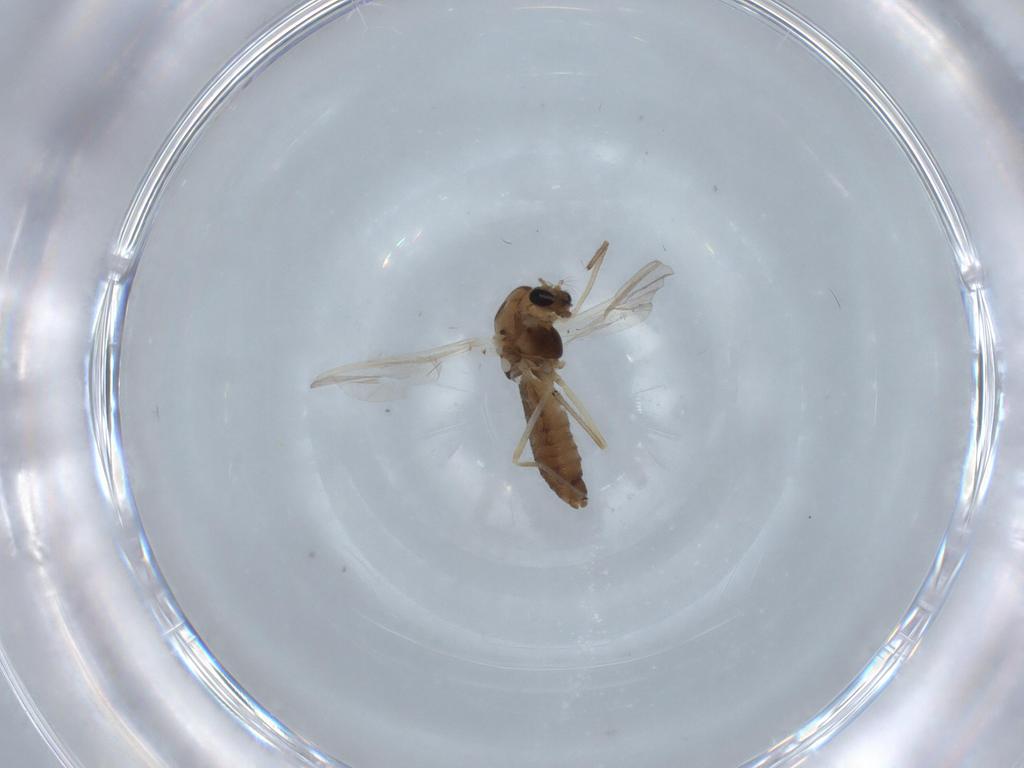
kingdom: Animalia
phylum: Arthropoda
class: Insecta
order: Diptera
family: Chironomidae
